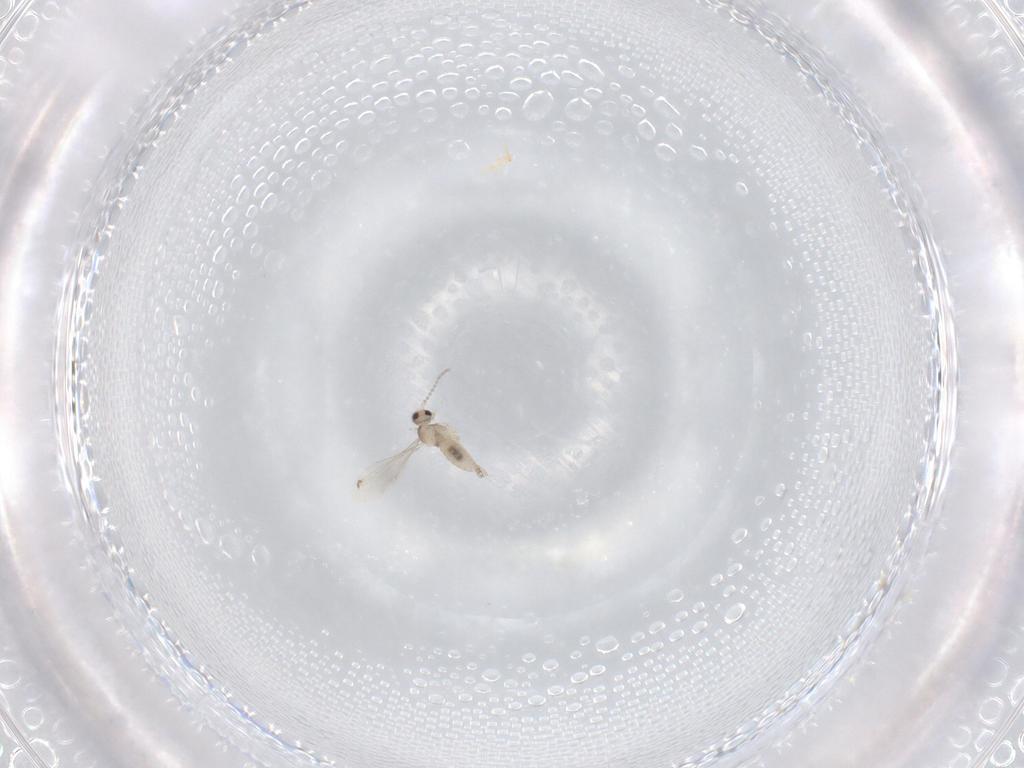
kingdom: Animalia
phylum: Arthropoda
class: Insecta
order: Diptera
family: Cecidomyiidae
